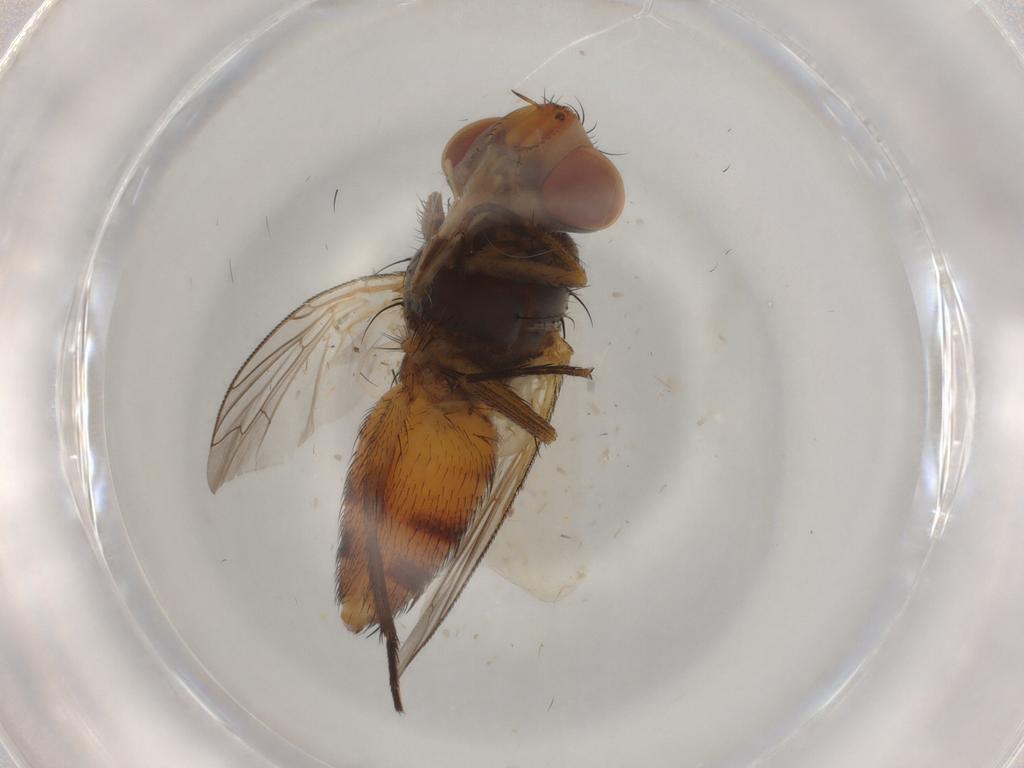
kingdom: Animalia
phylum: Arthropoda
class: Insecta
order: Diptera
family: Sarcophagidae
